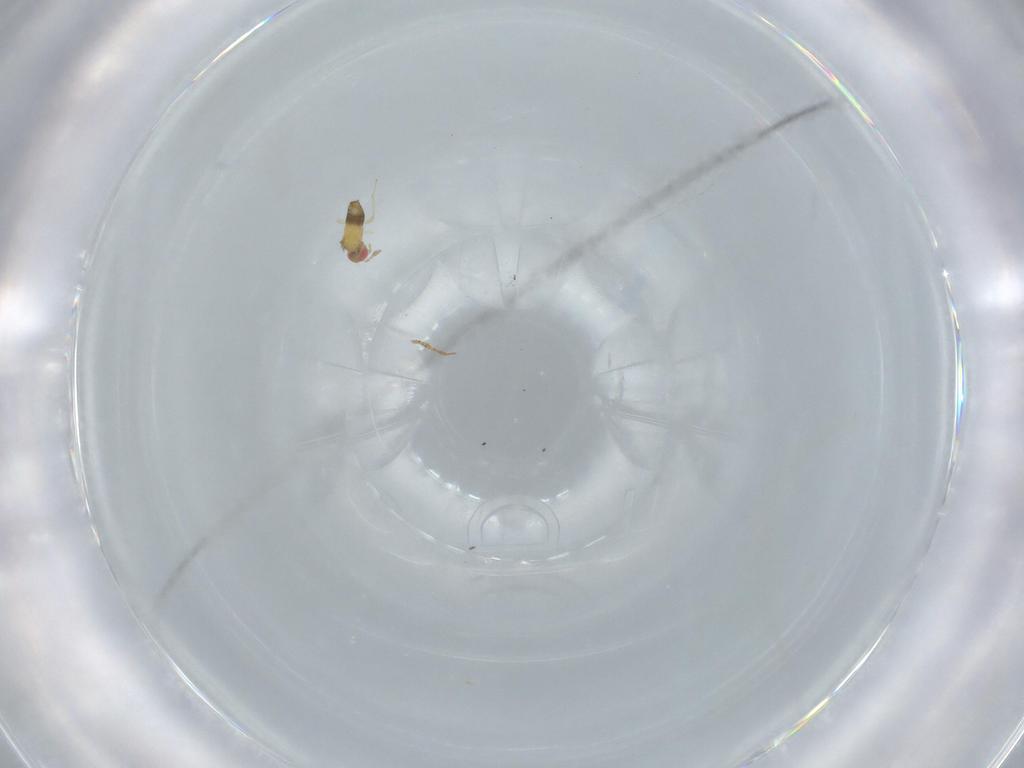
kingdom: Animalia
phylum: Arthropoda
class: Insecta
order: Hymenoptera
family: Trichogrammatidae
